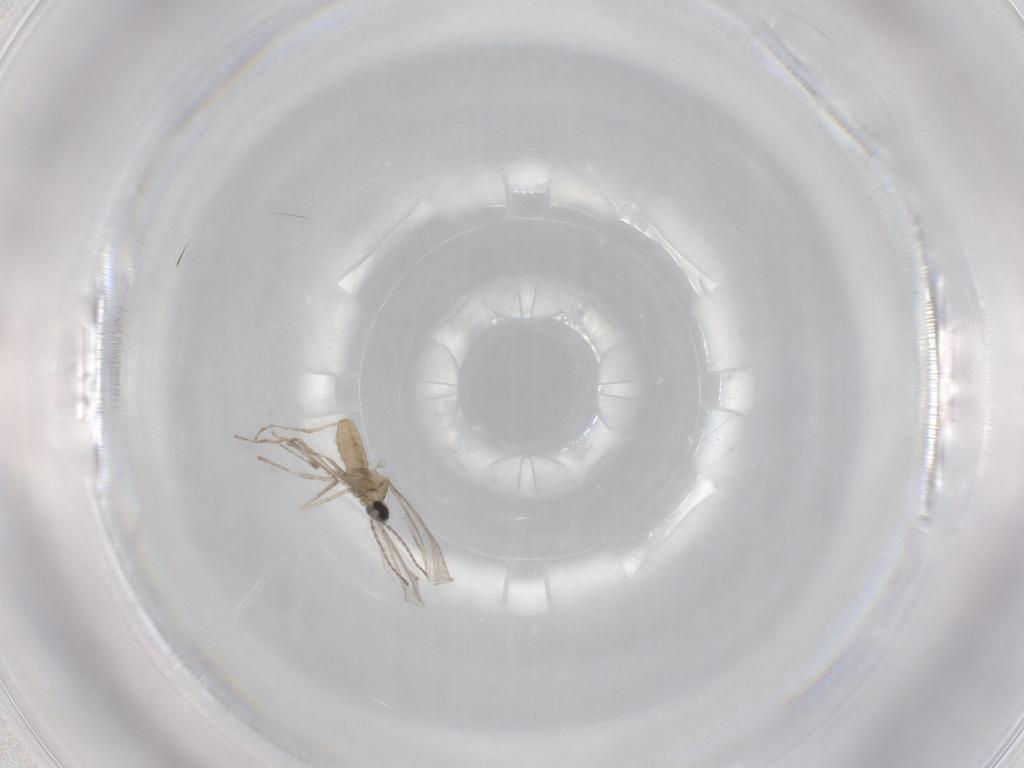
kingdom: Animalia
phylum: Arthropoda
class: Insecta
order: Diptera
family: Cecidomyiidae
